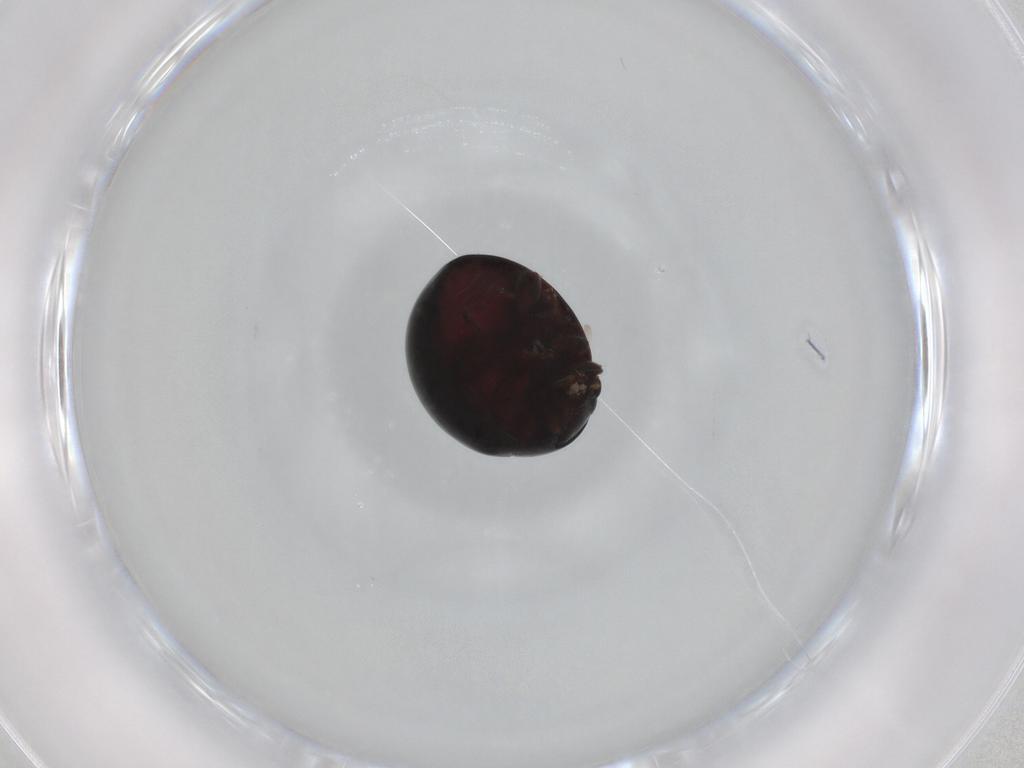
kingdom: Animalia
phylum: Arthropoda
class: Insecta
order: Coleoptera
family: Coccinellidae
